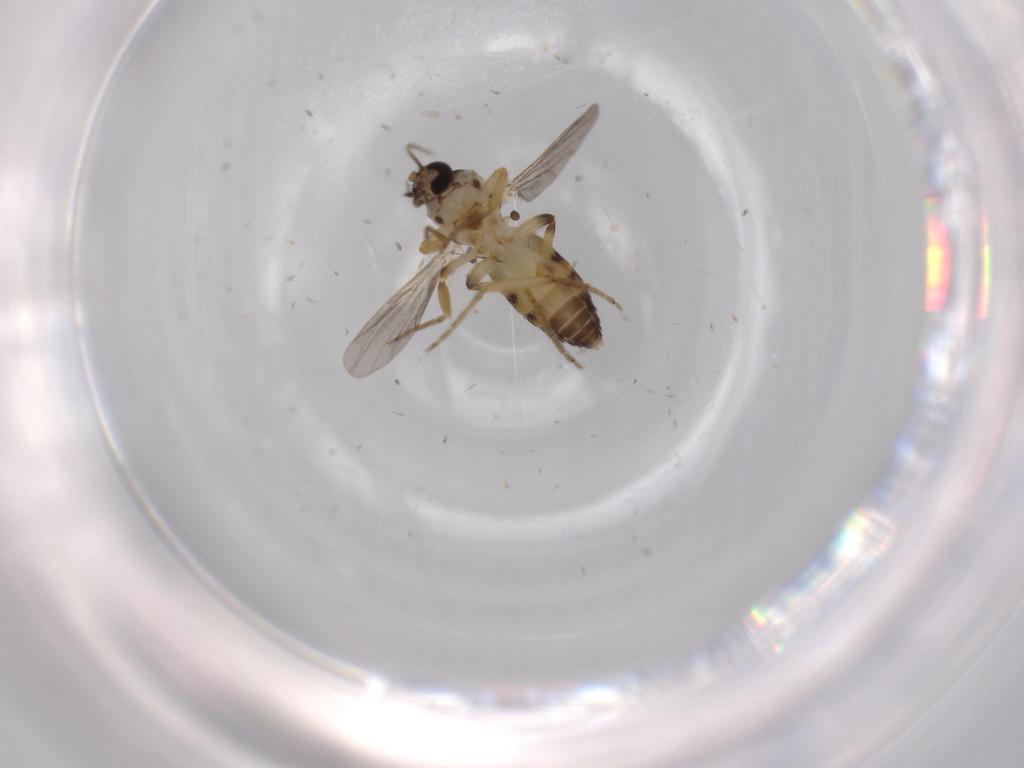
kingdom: Animalia
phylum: Arthropoda
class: Insecta
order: Diptera
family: Ceratopogonidae
